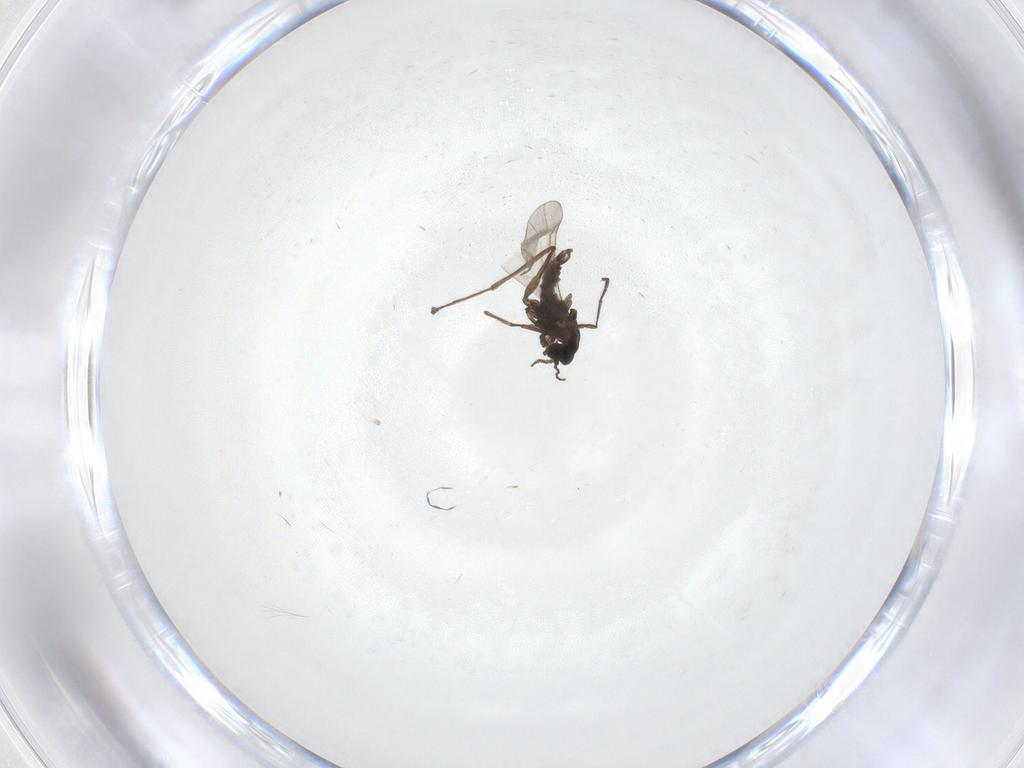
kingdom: Animalia
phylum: Arthropoda
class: Insecta
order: Diptera
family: Cecidomyiidae
